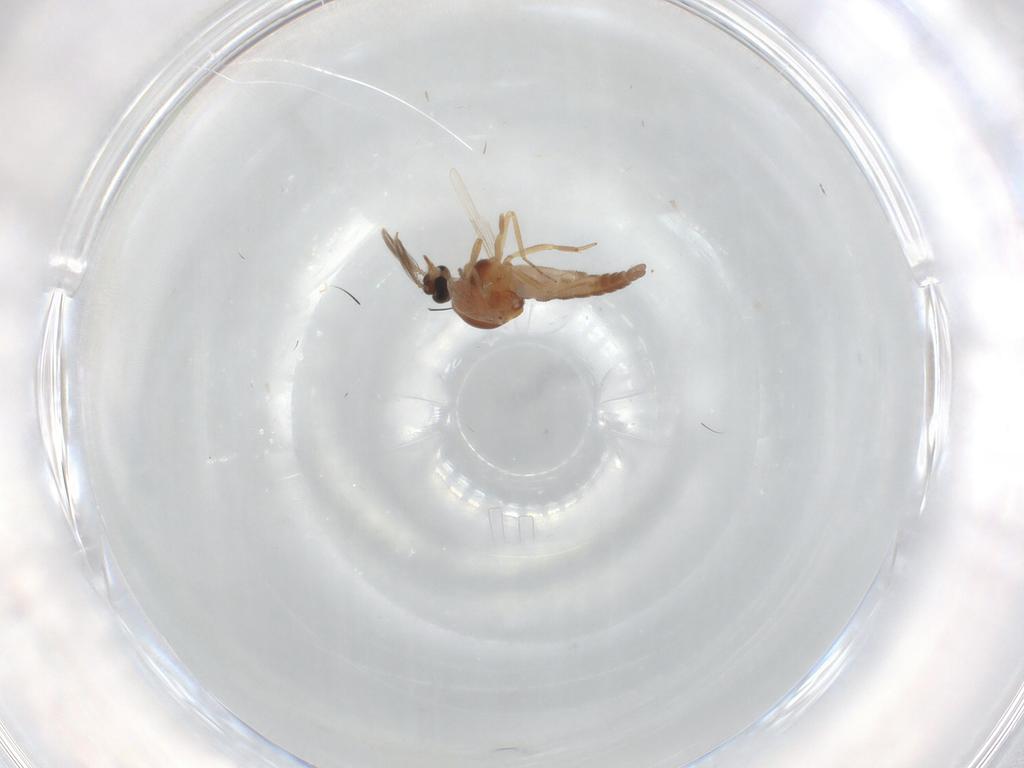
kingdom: Animalia
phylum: Arthropoda
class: Insecta
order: Diptera
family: Ceratopogonidae
